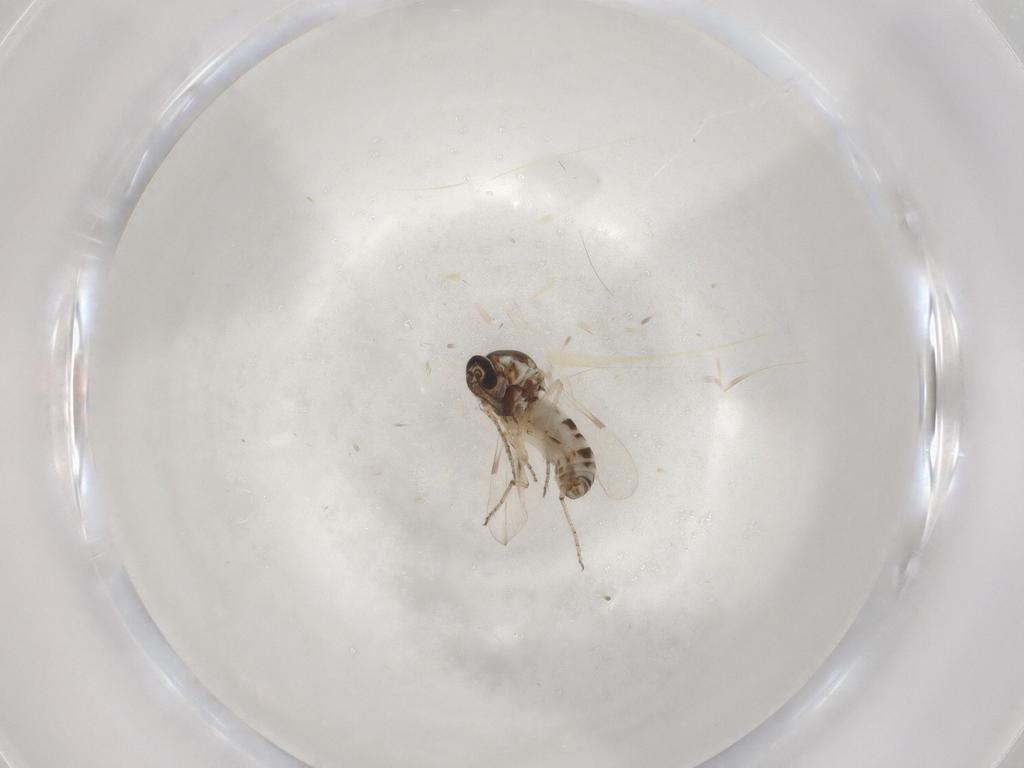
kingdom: Animalia
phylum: Arthropoda
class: Insecta
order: Diptera
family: Ceratopogonidae
